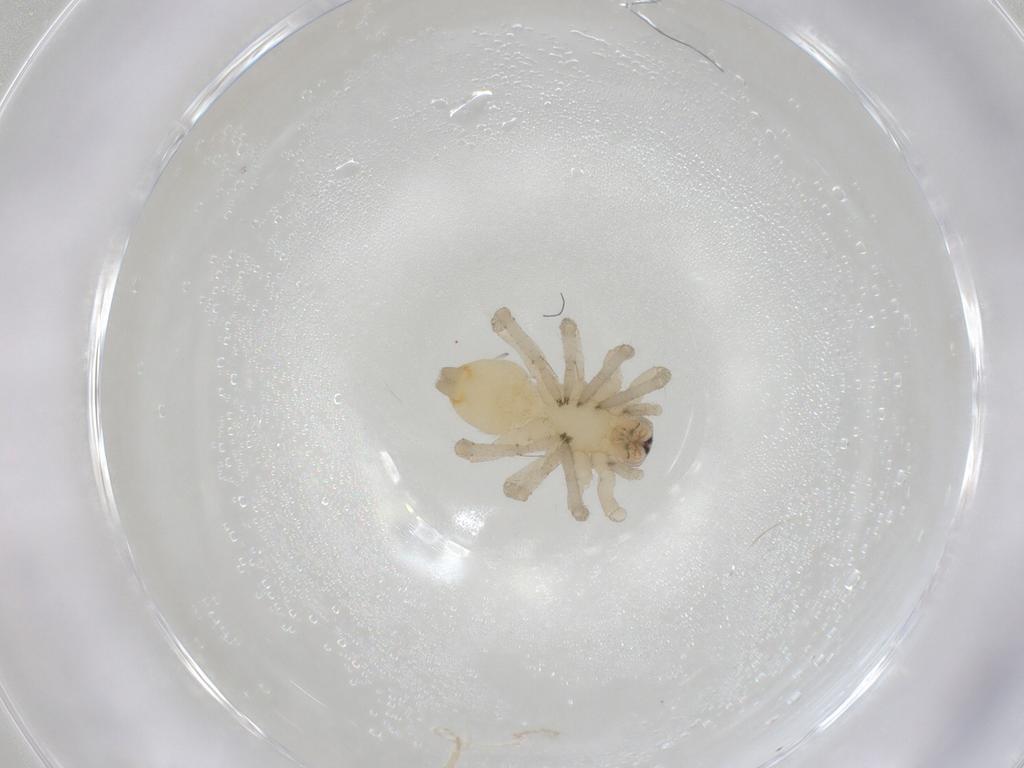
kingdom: Animalia
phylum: Arthropoda
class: Arachnida
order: Araneae
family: Clubionidae
